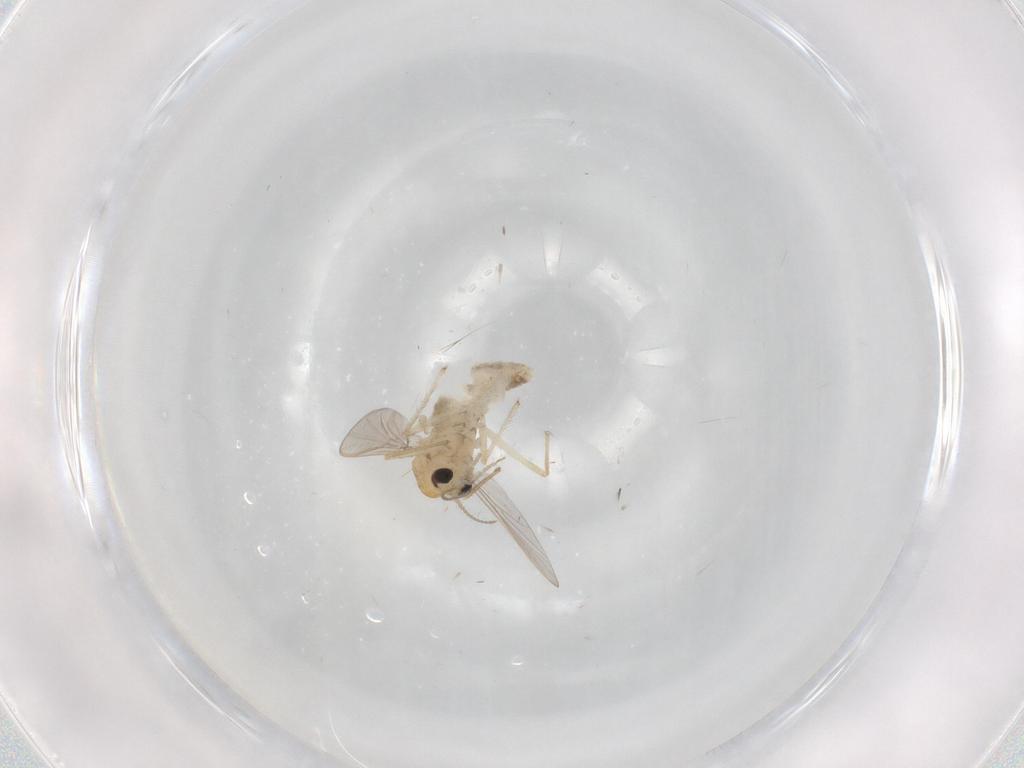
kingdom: Animalia
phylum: Arthropoda
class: Insecta
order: Diptera
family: Chironomidae
